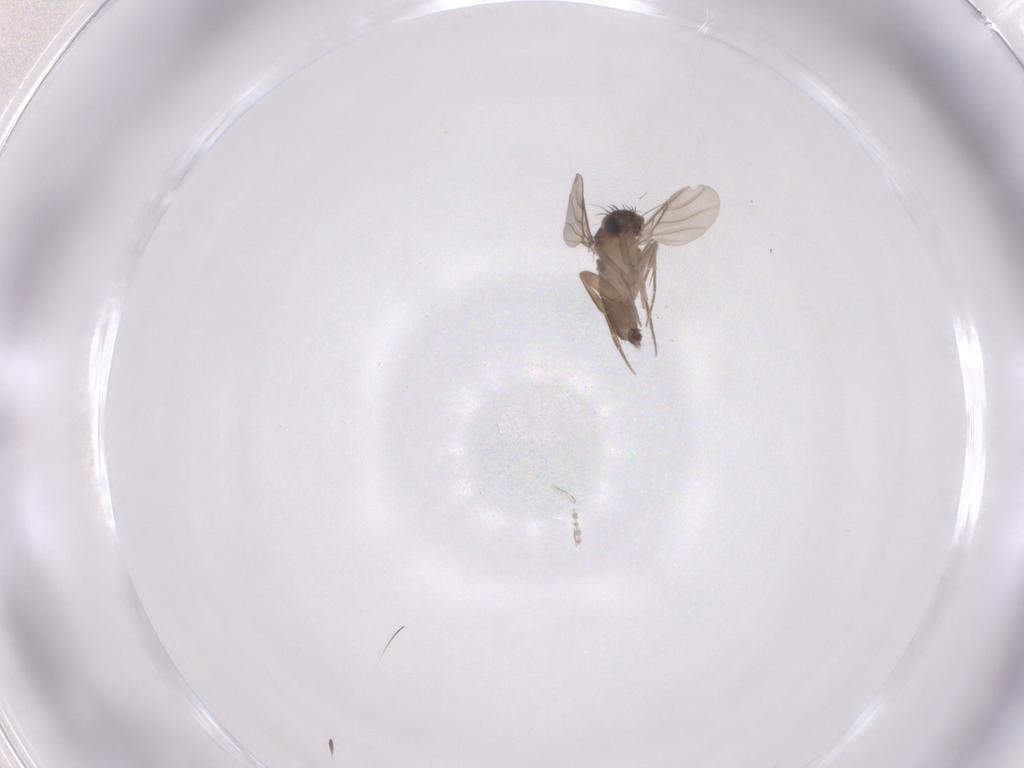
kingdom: Animalia
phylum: Arthropoda
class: Insecta
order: Diptera
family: Phoridae
